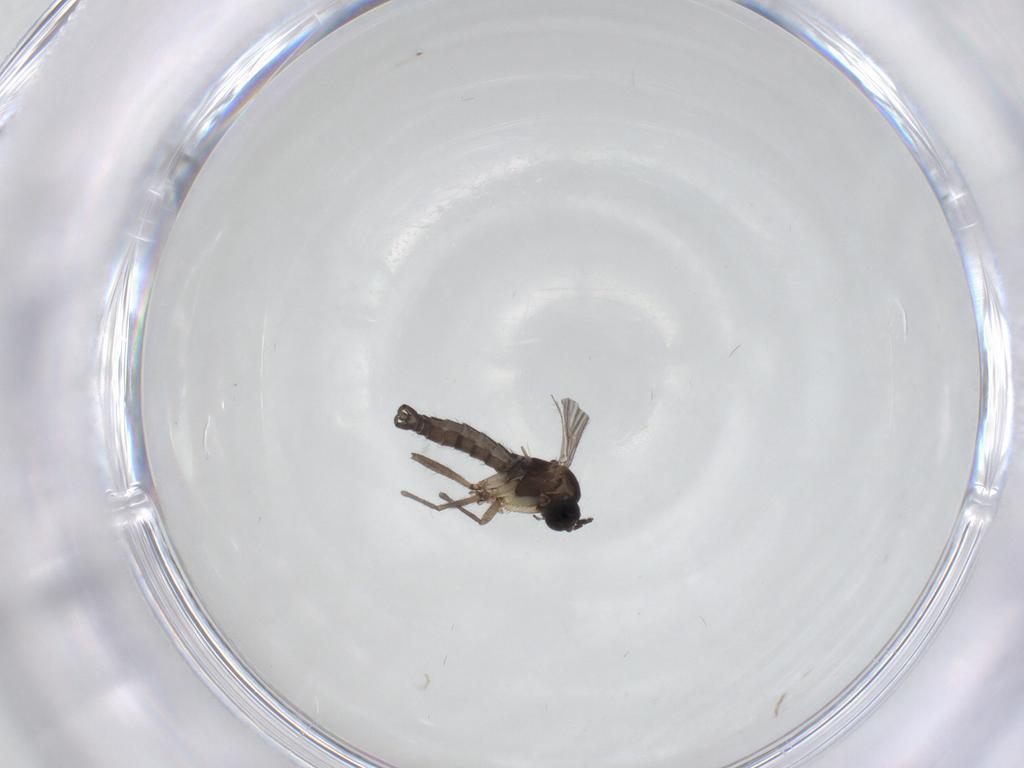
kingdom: Animalia
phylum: Arthropoda
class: Insecta
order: Diptera
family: Sciaridae
